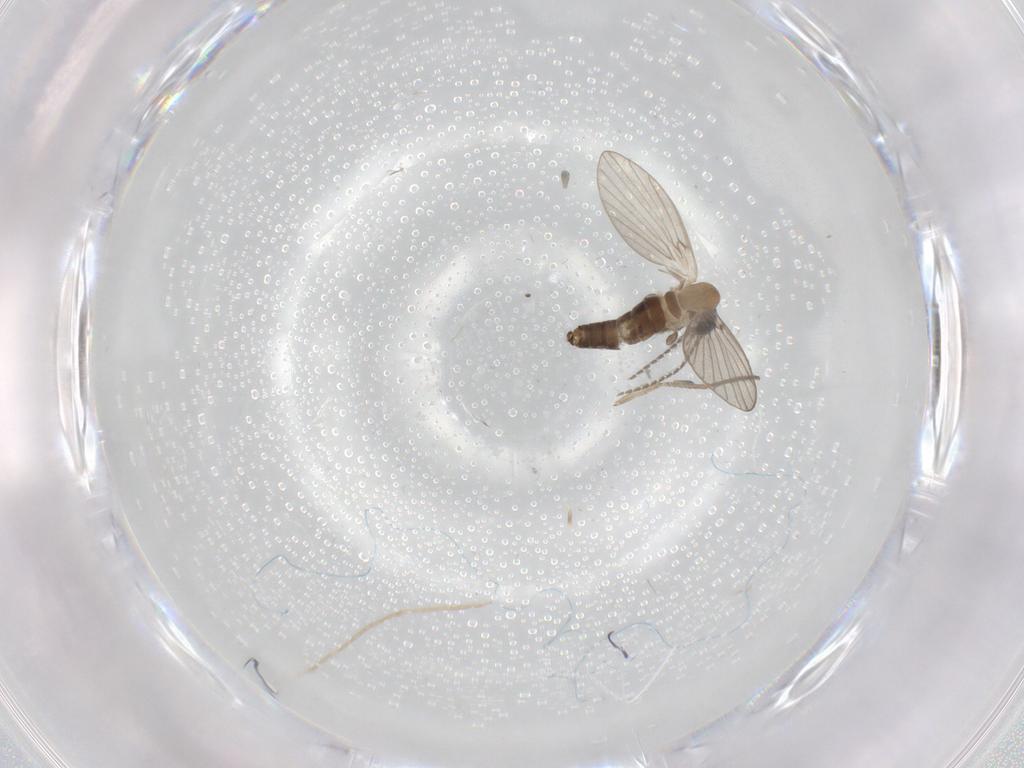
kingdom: Animalia
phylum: Arthropoda
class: Insecta
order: Diptera
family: Psychodidae
